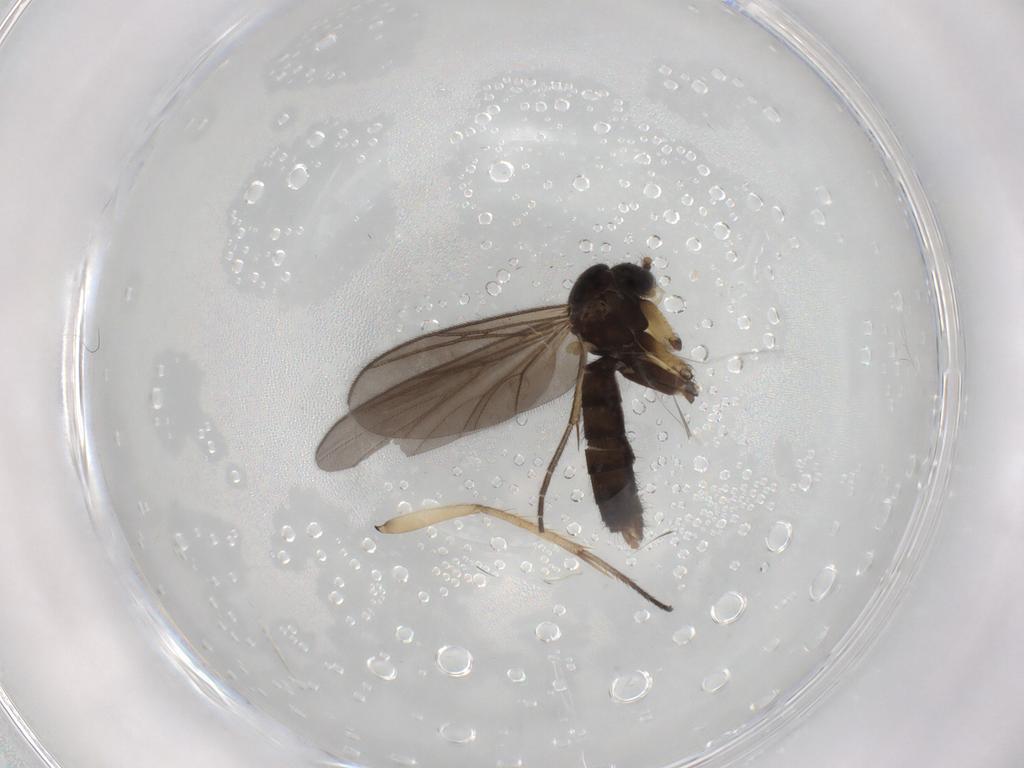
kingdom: Animalia
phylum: Arthropoda
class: Insecta
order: Diptera
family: Mycetophilidae
